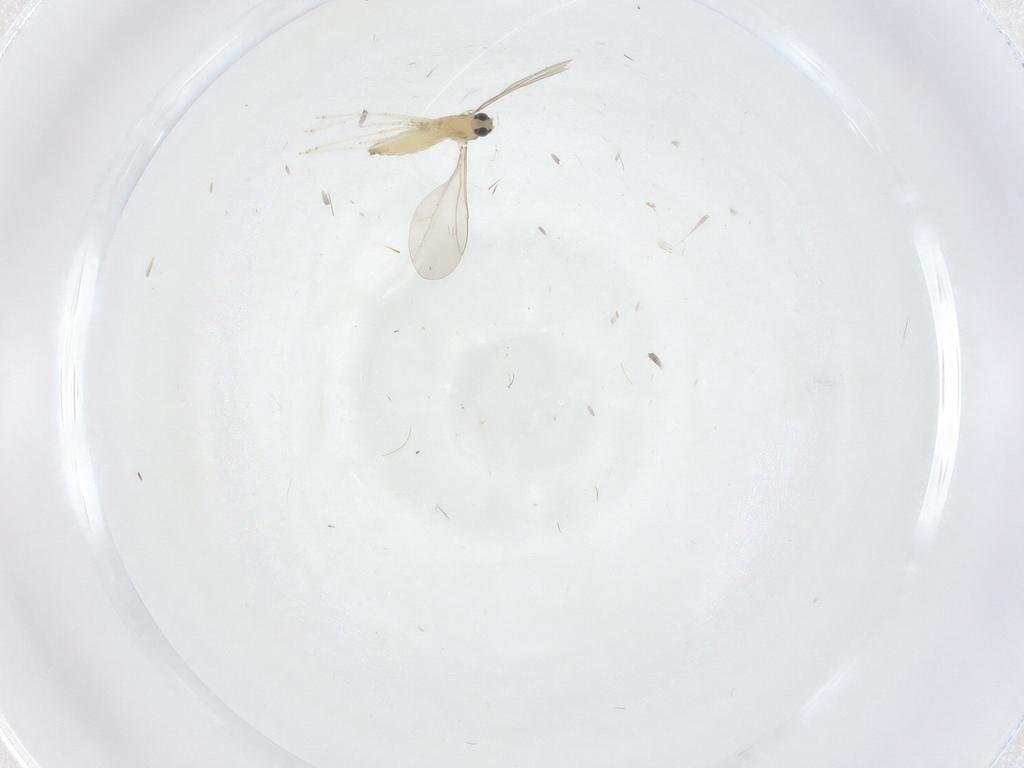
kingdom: Animalia
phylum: Arthropoda
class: Insecta
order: Diptera
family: Cecidomyiidae
